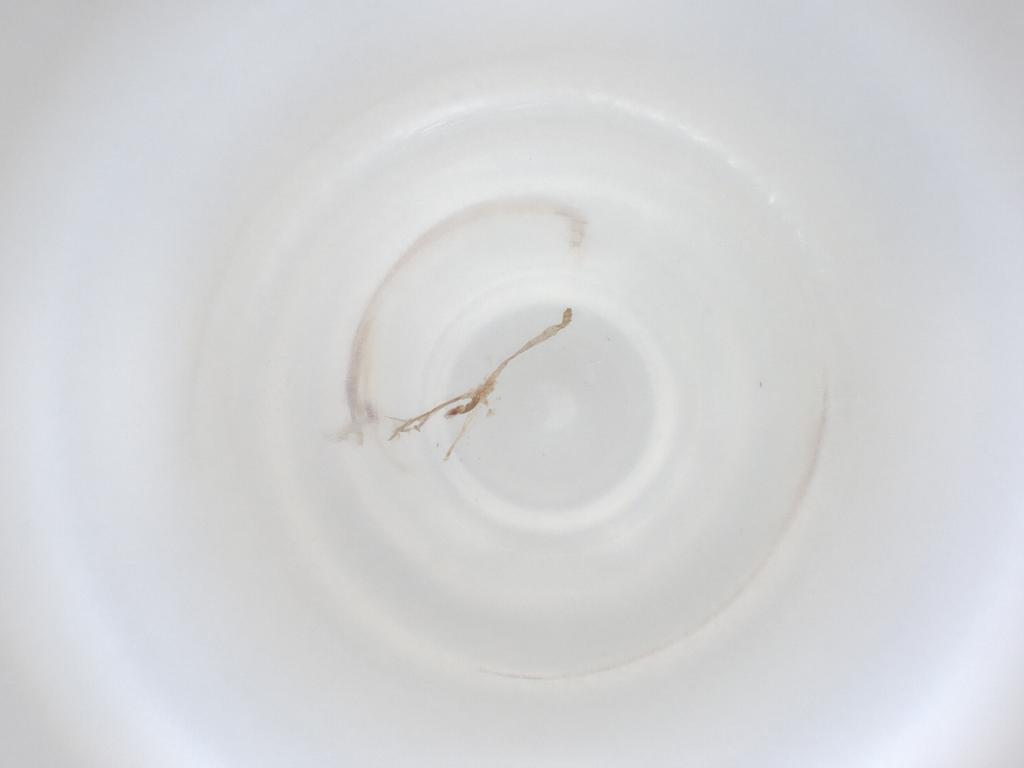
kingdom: Animalia
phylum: Arthropoda
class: Insecta
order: Diptera
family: Cecidomyiidae
